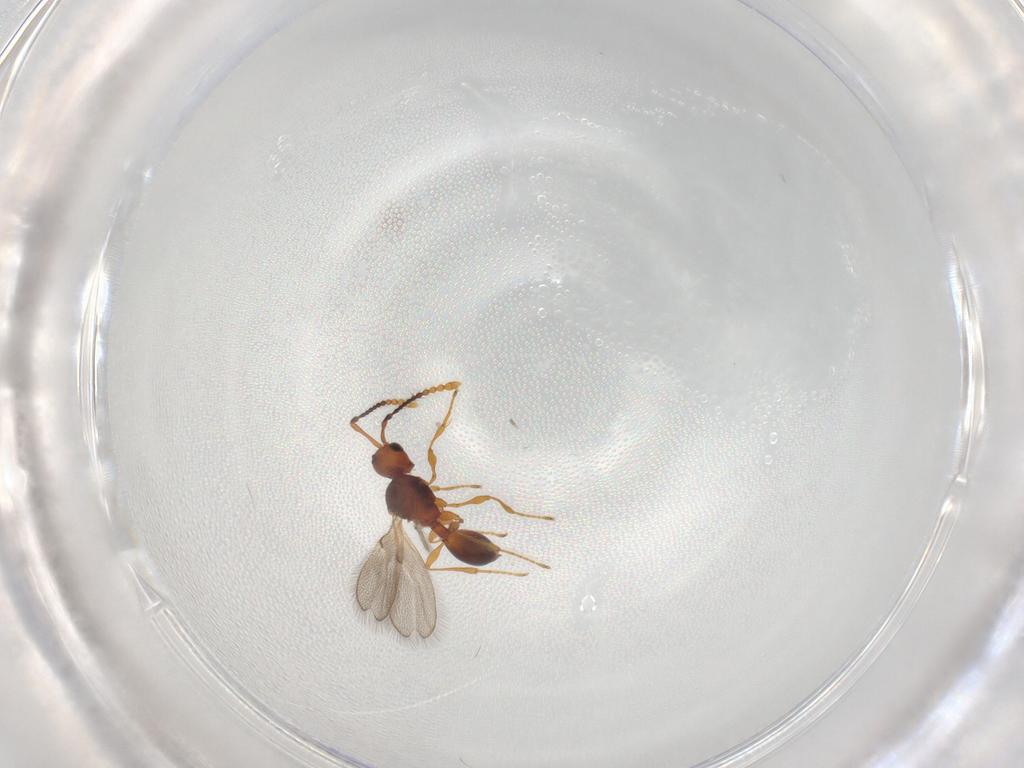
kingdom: Animalia
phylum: Arthropoda
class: Insecta
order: Hymenoptera
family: Diapriidae
